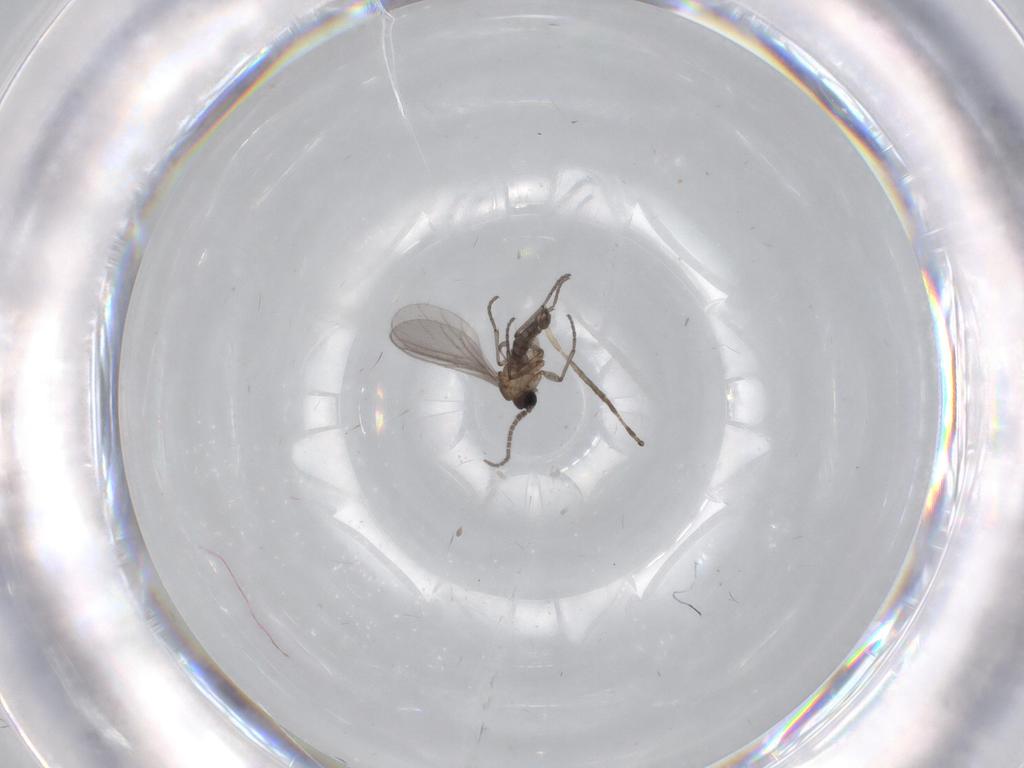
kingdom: Animalia
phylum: Arthropoda
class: Insecta
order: Diptera
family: Sciaridae
